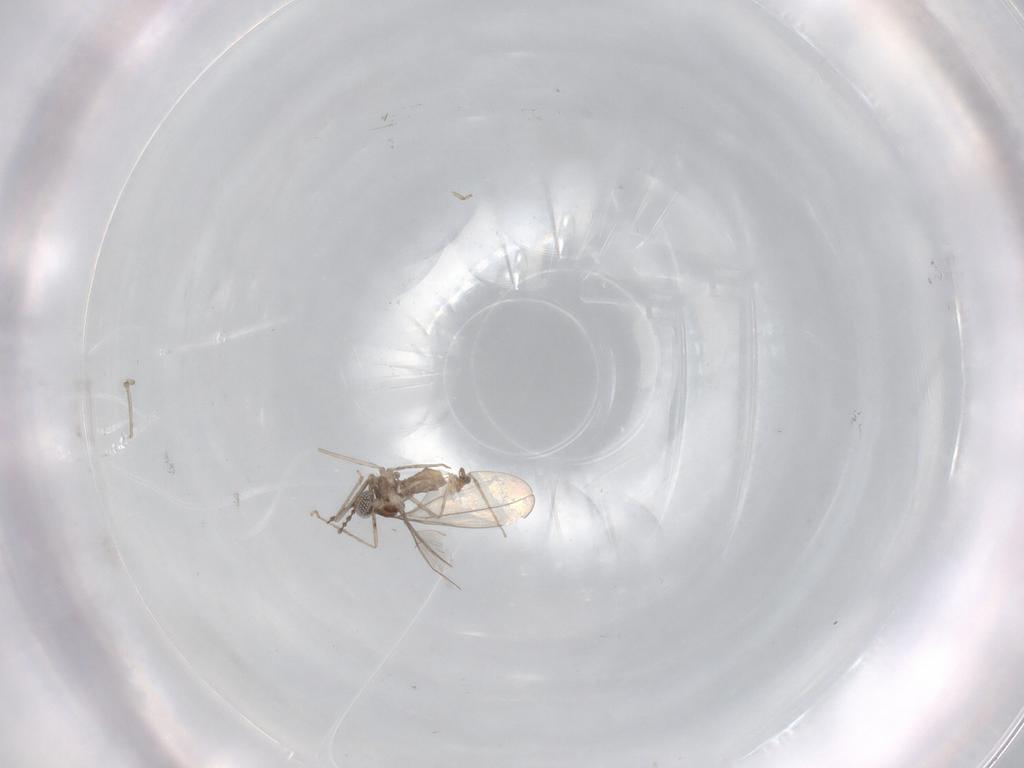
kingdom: Animalia
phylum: Arthropoda
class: Insecta
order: Diptera
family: Cecidomyiidae
